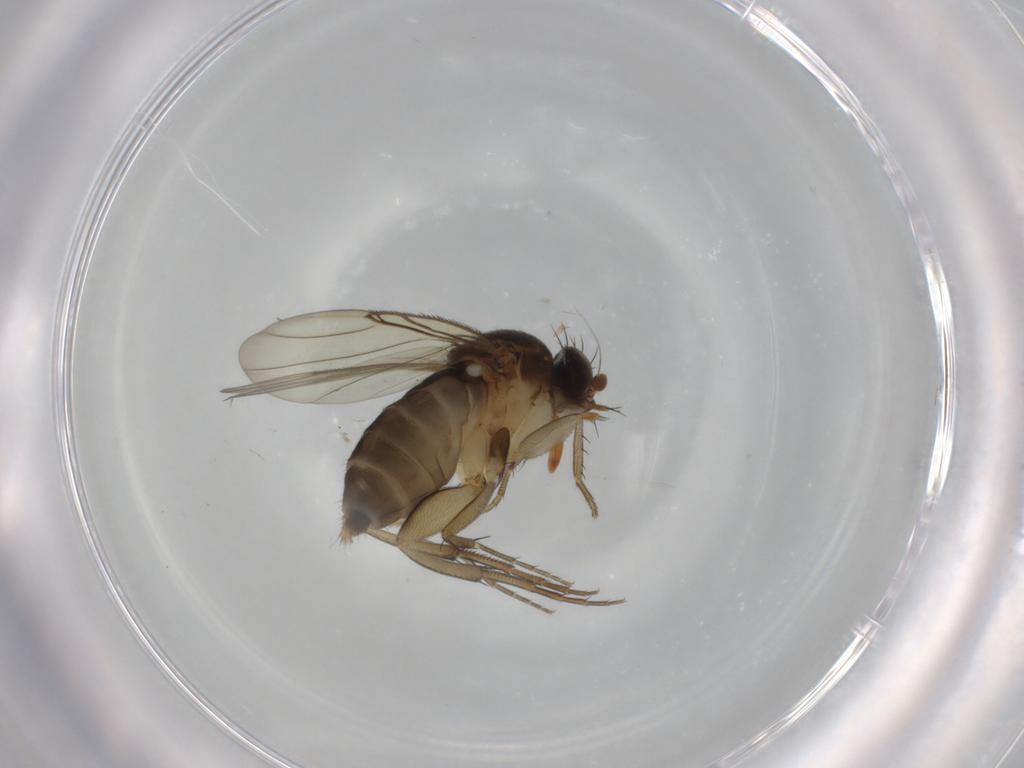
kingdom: Animalia
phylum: Arthropoda
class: Insecta
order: Diptera
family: Phoridae
